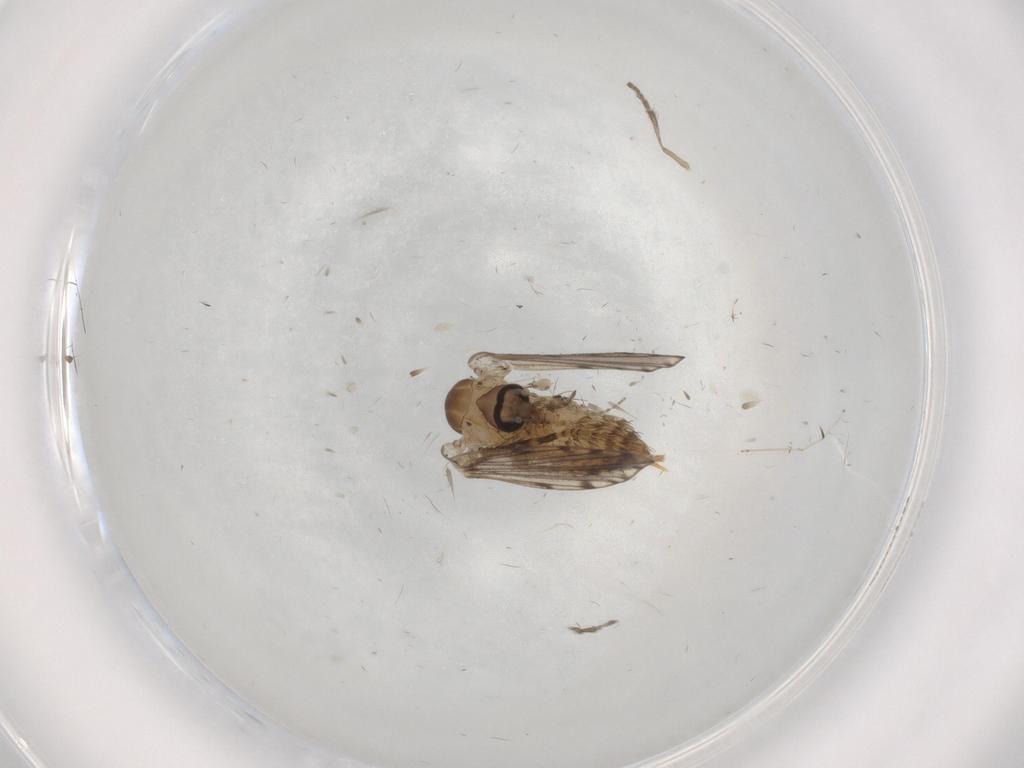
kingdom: Animalia
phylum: Arthropoda
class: Insecta
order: Diptera
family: Psychodidae
